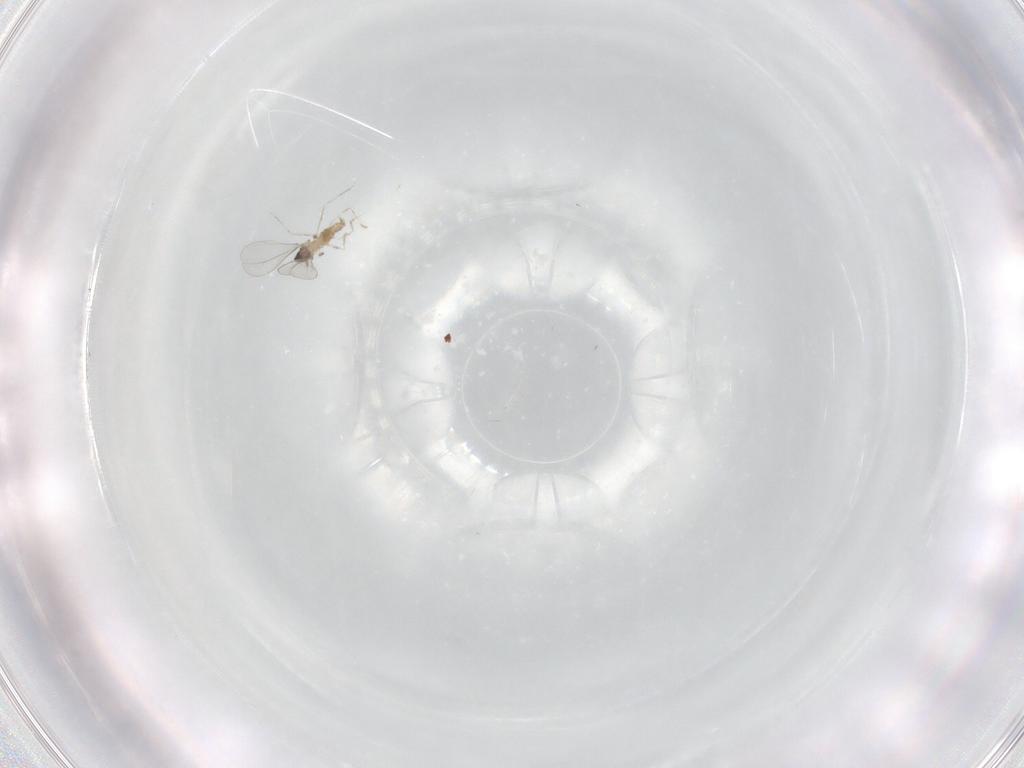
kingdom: Animalia
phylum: Arthropoda
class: Insecta
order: Diptera
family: Cecidomyiidae
